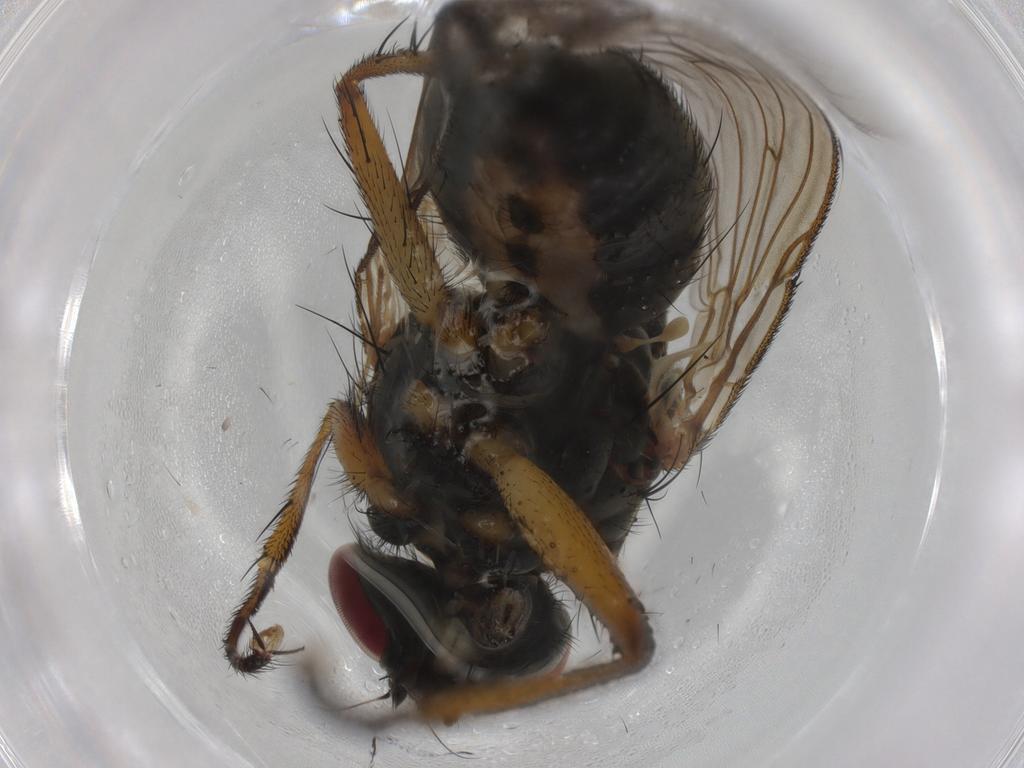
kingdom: Animalia
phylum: Arthropoda
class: Insecta
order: Diptera
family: Muscidae
